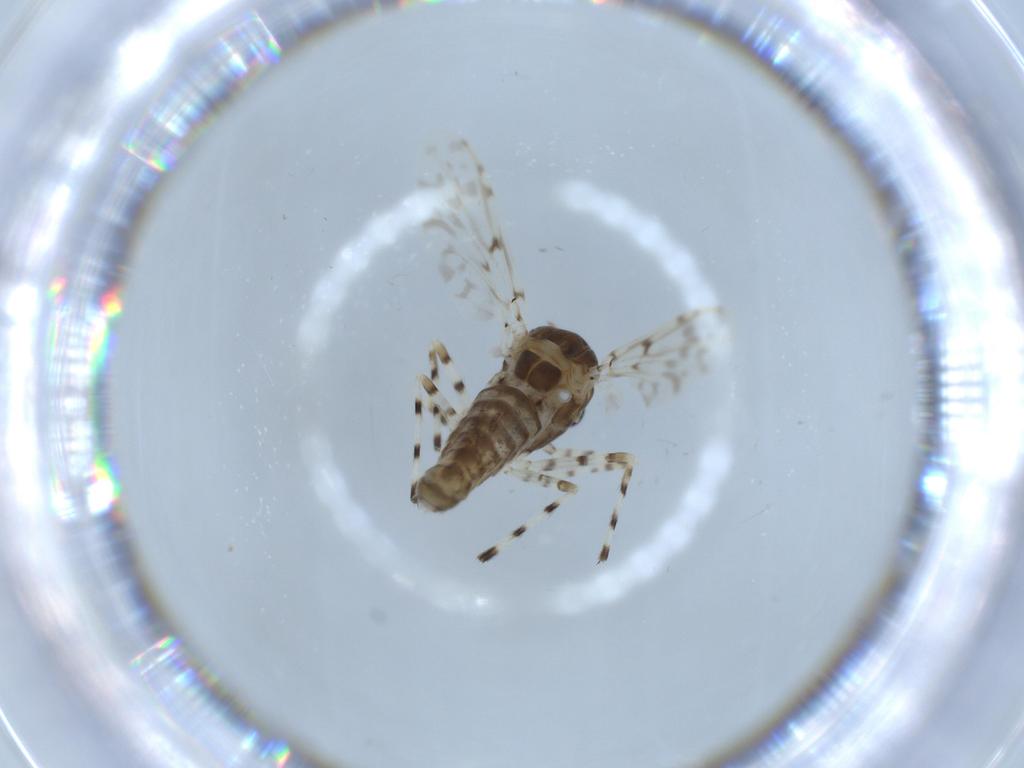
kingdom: Animalia
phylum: Arthropoda
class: Insecta
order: Diptera
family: Chironomidae
